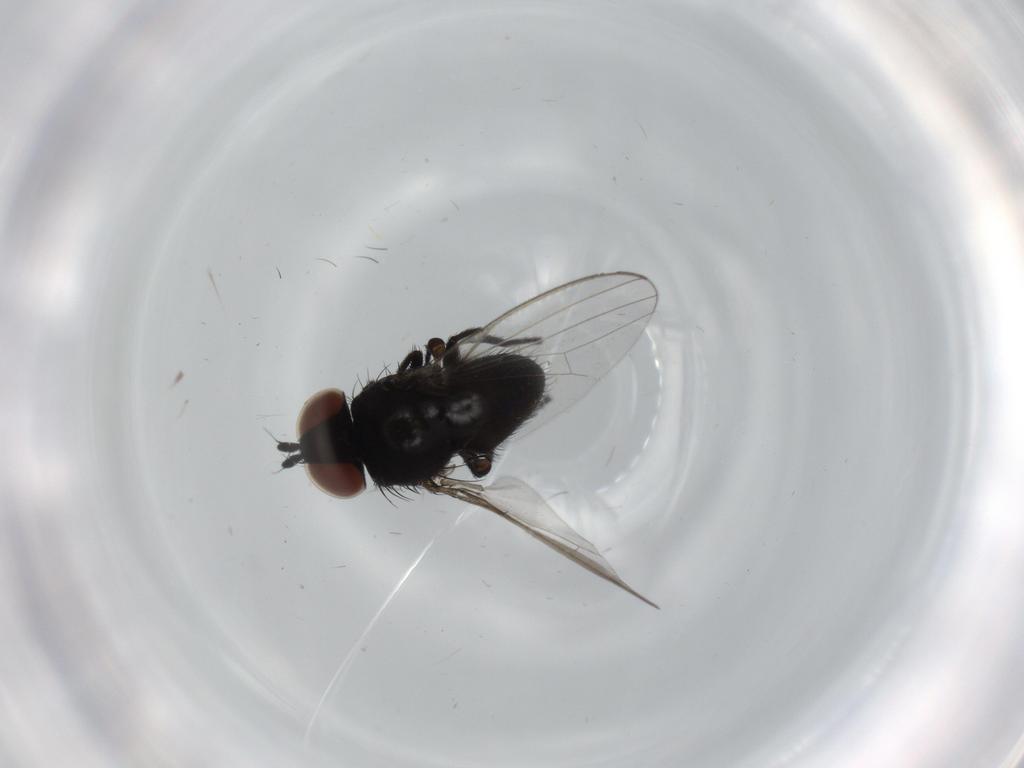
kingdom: Animalia
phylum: Arthropoda
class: Insecta
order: Diptera
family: Milichiidae
